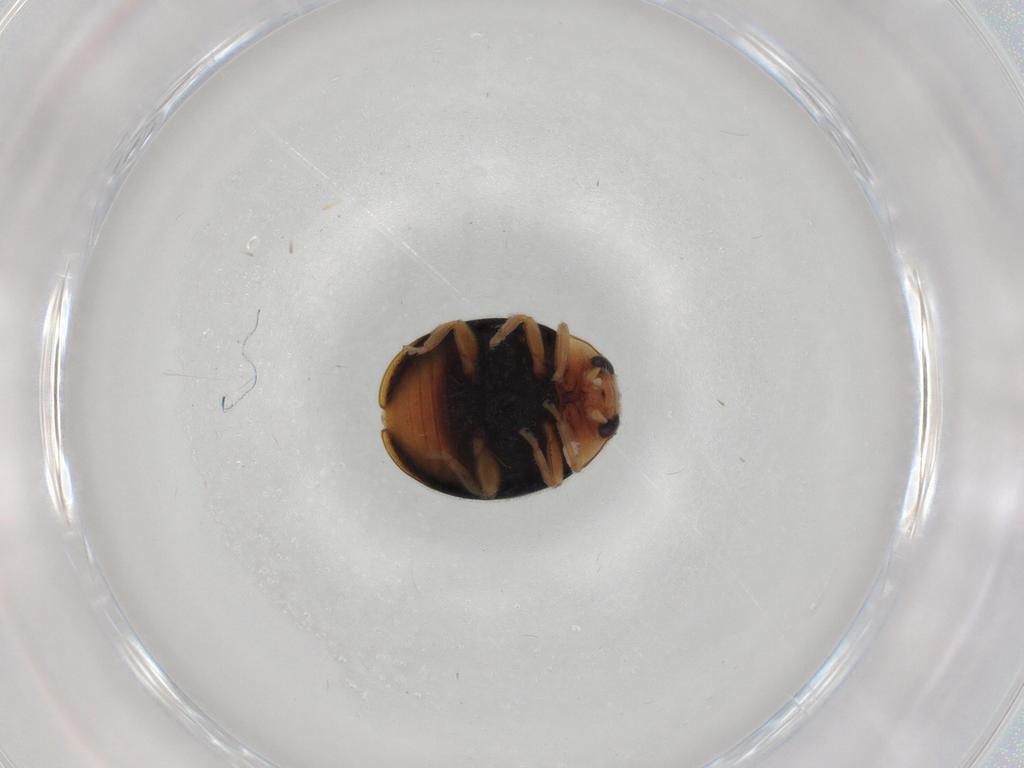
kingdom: Animalia
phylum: Arthropoda
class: Insecta
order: Coleoptera
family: Coccinellidae
